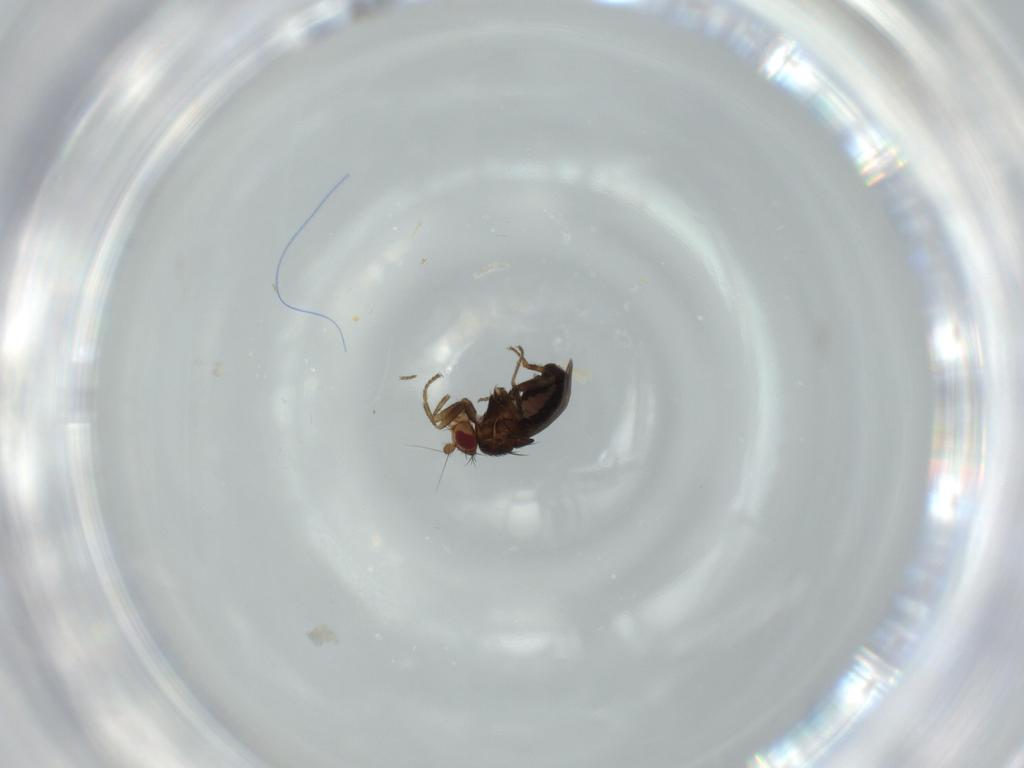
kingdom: Animalia
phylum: Arthropoda
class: Insecta
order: Diptera
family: Sphaeroceridae
